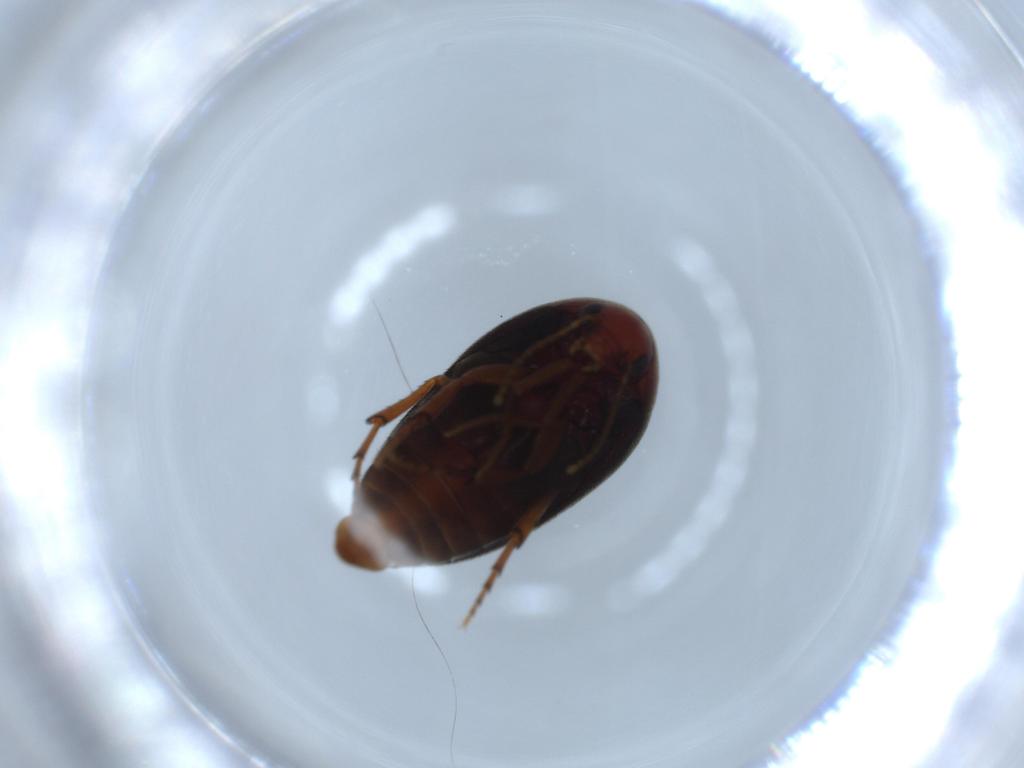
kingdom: Animalia
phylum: Arthropoda
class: Insecta
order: Coleoptera
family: Eucinetidae
